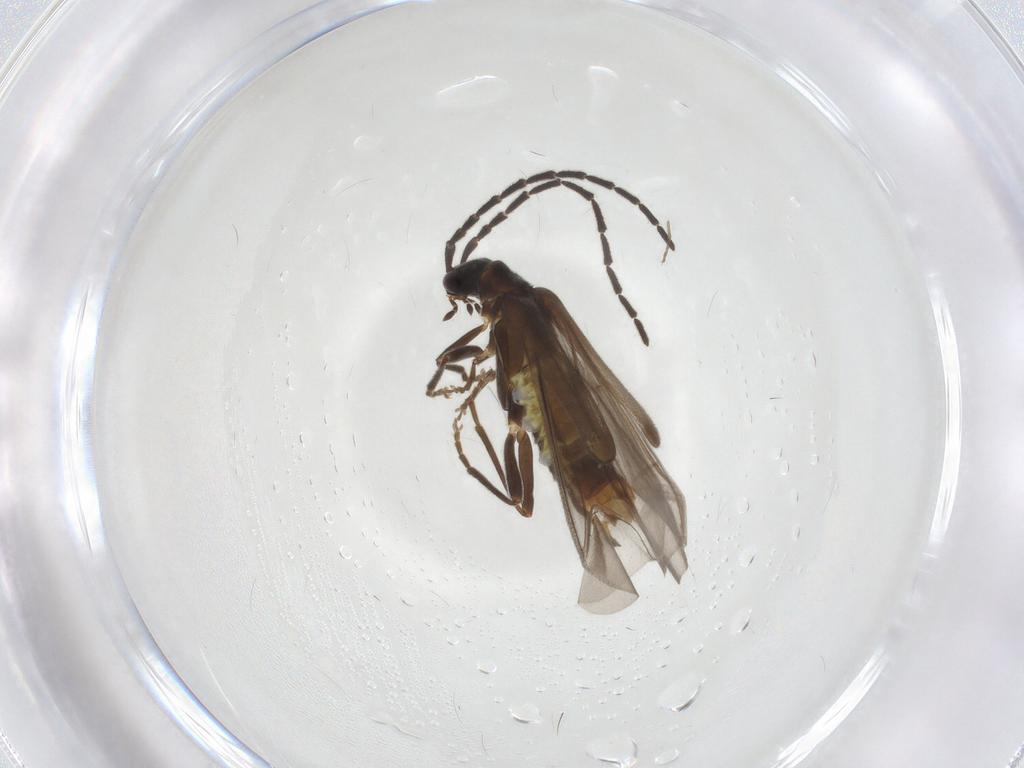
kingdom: Animalia
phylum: Arthropoda
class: Insecta
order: Coleoptera
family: Cantharidae
